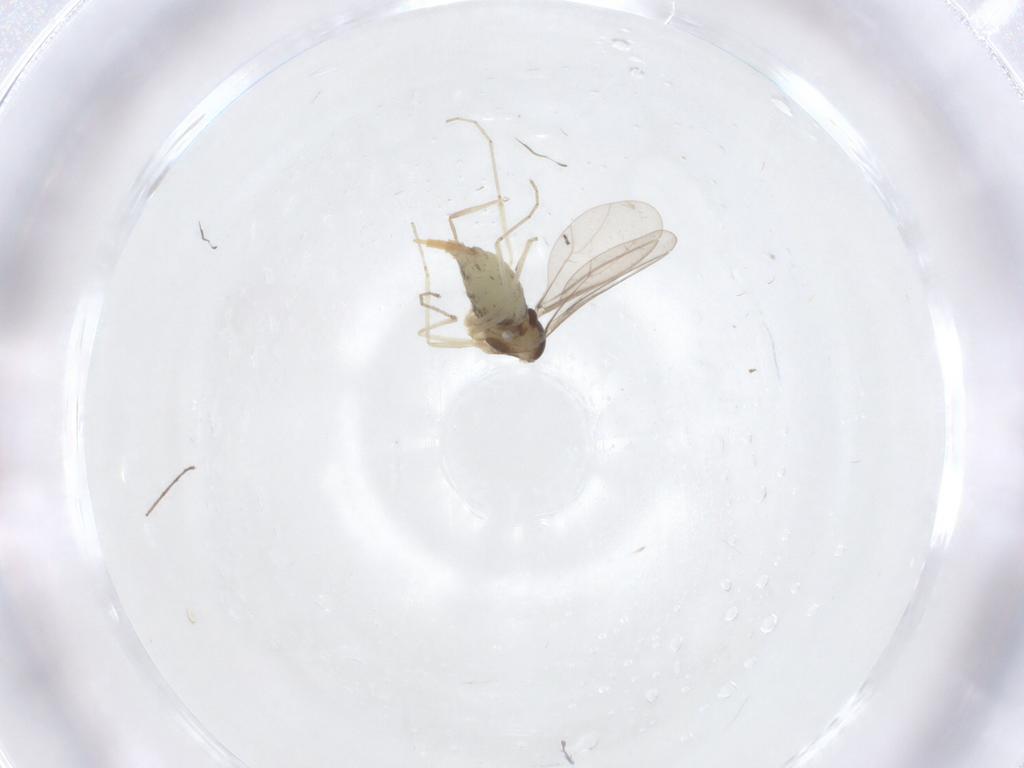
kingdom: Animalia
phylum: Arthropoda
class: Insecta
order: Diptera
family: Cecidomyiidae
